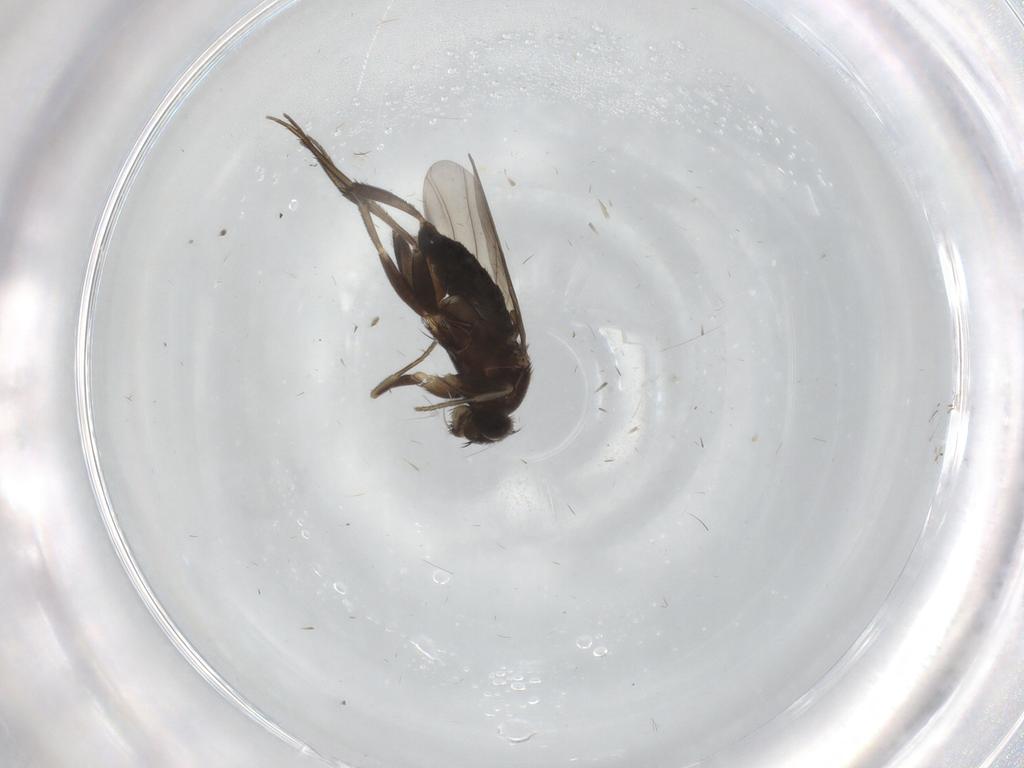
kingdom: Animalia
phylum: Arthropoda
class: Insecta
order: Diptera
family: Phoridae
